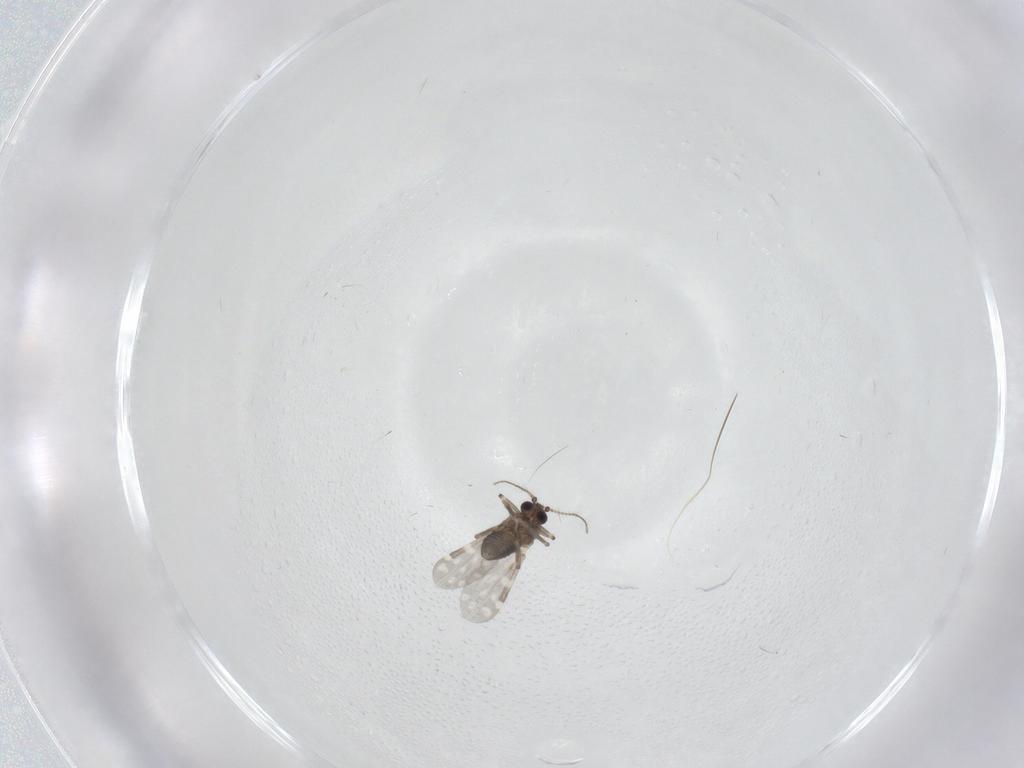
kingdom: Animalia
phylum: Arthropoda
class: Insecta
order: Diptera
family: Ceratopogonidae
